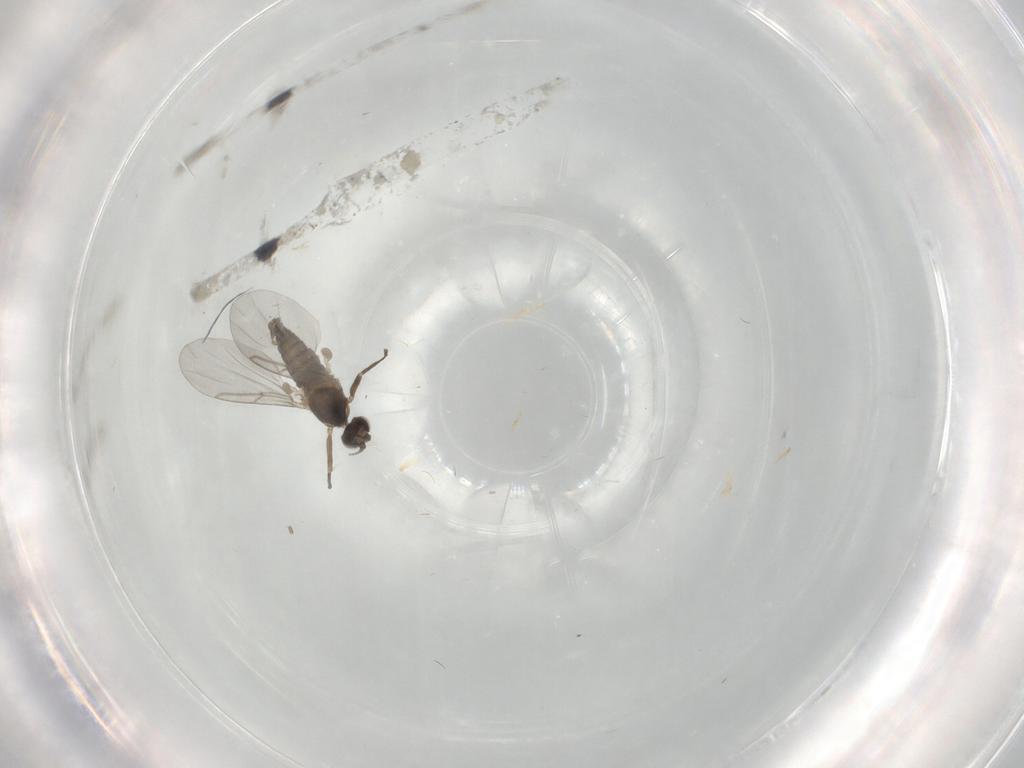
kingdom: Animalia
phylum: Arthropoda
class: Insecta
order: Diptera
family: Cecidomyiidae
